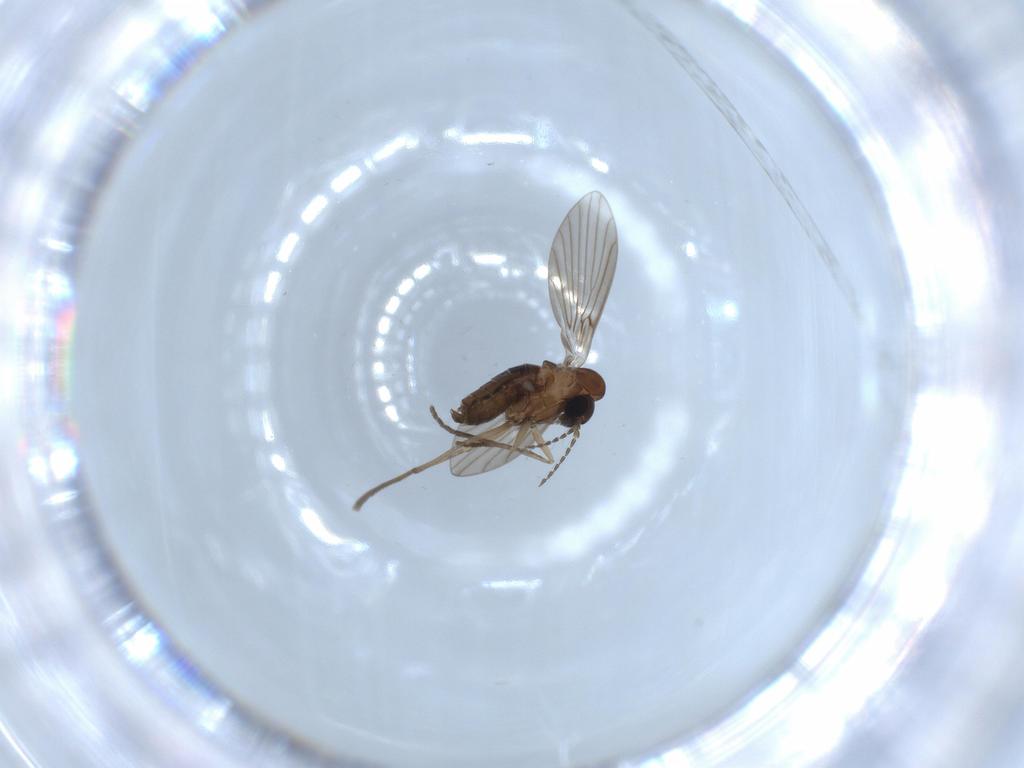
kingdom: Animalia
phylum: Arthropoda
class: Insecta
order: Diptera
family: Psychodidae
